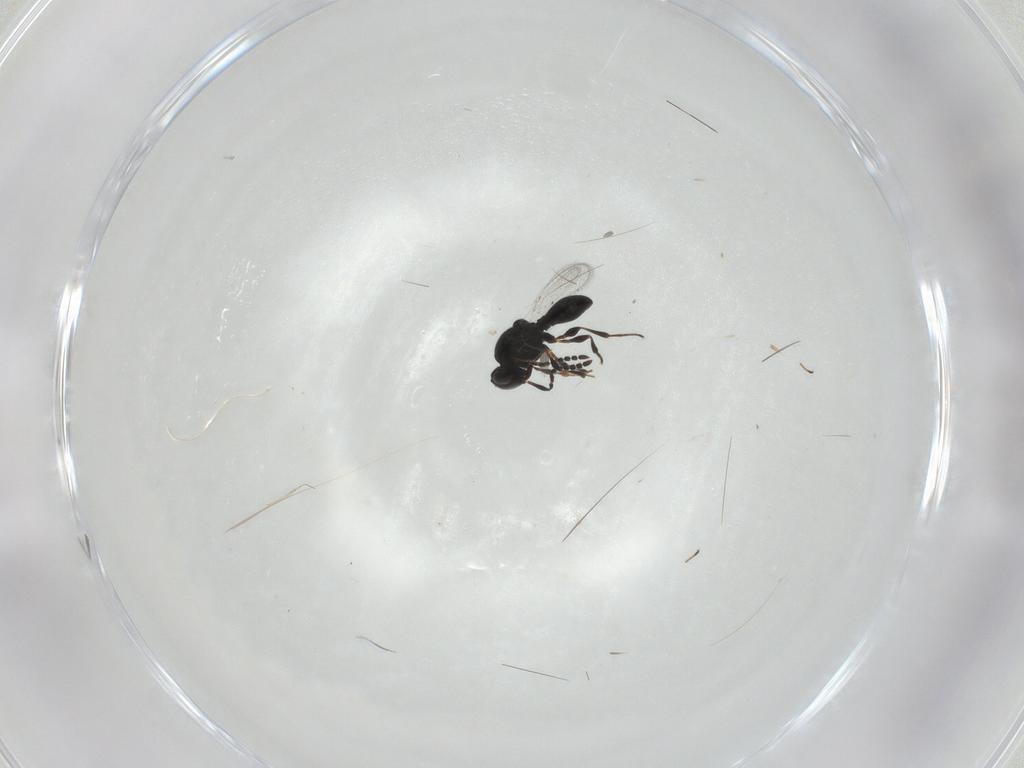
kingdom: Animalia
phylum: Arthropoda
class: Insecta
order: Hymenoptera
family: Platygastridae
